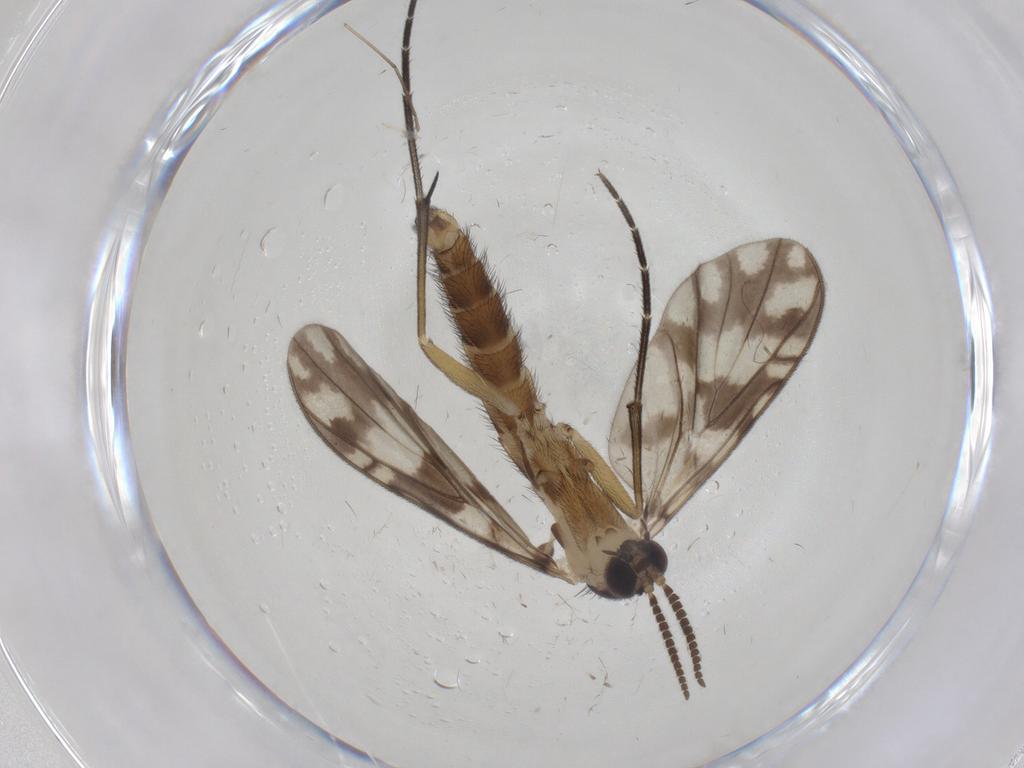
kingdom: Animalia
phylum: Arthropoda
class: Insecta
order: Diptera
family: Keroplatidae
